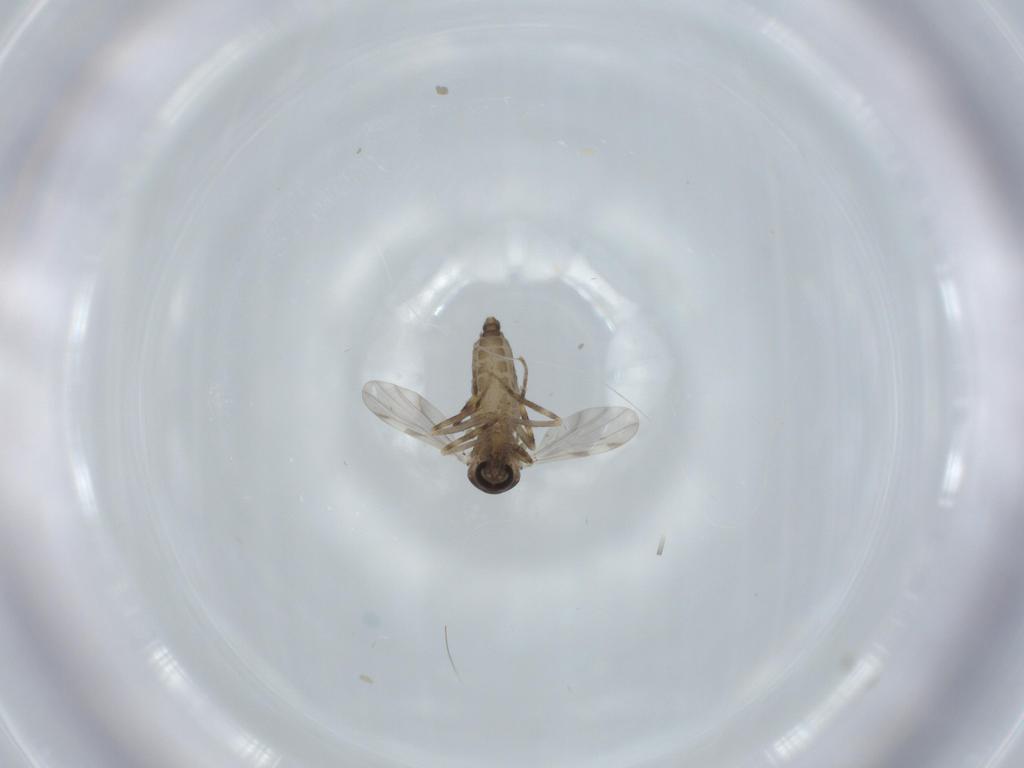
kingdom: Animalia
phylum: Arthropoda
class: Insecta
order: Diptera
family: Ceratopogonidae
